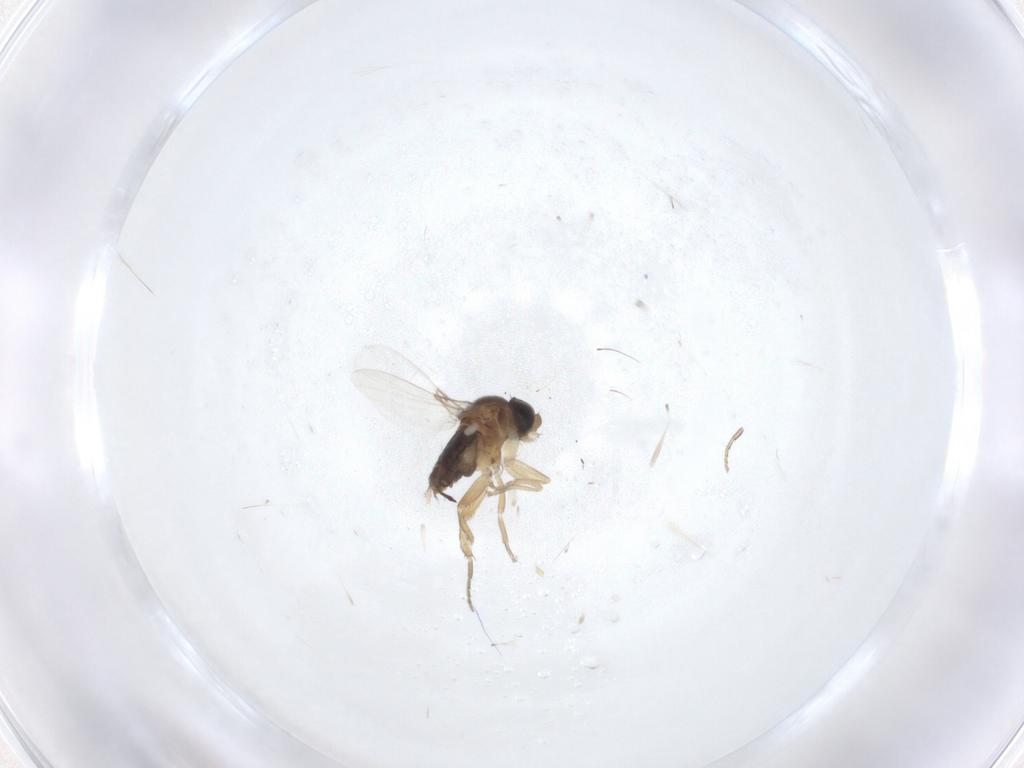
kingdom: Animalia
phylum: Arthropoda
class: Insecta
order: Diptera
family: Phoridae
